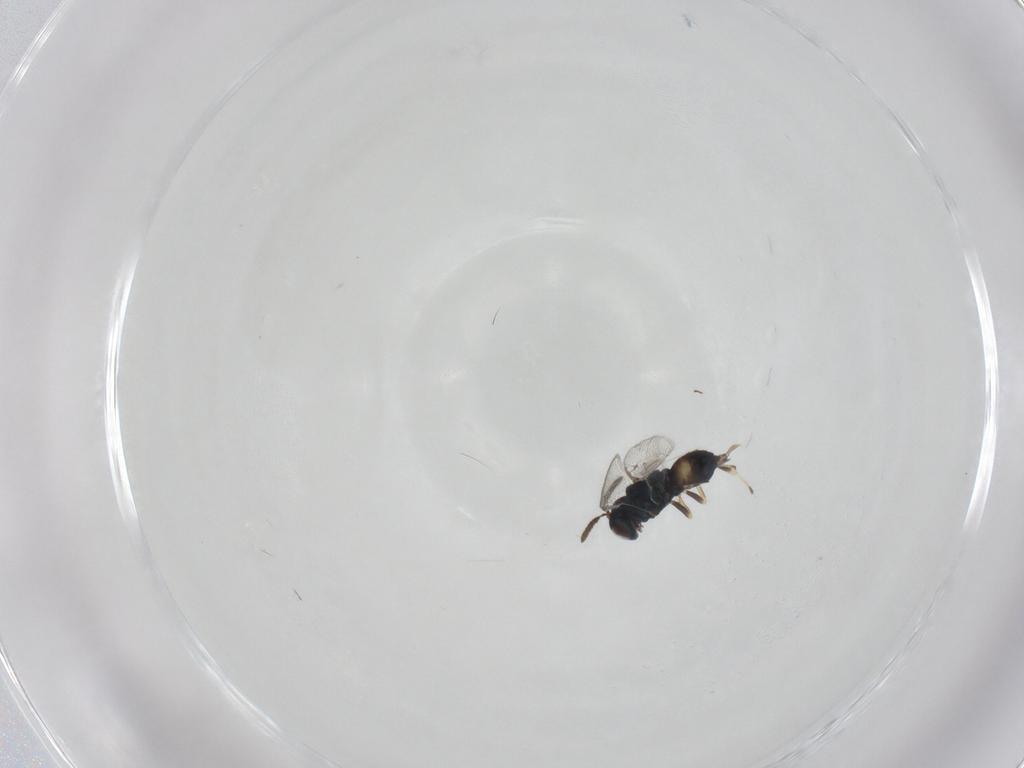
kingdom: Animalia
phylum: Arthropoda
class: Insecta
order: Hymenoptera
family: Pteromalidae
